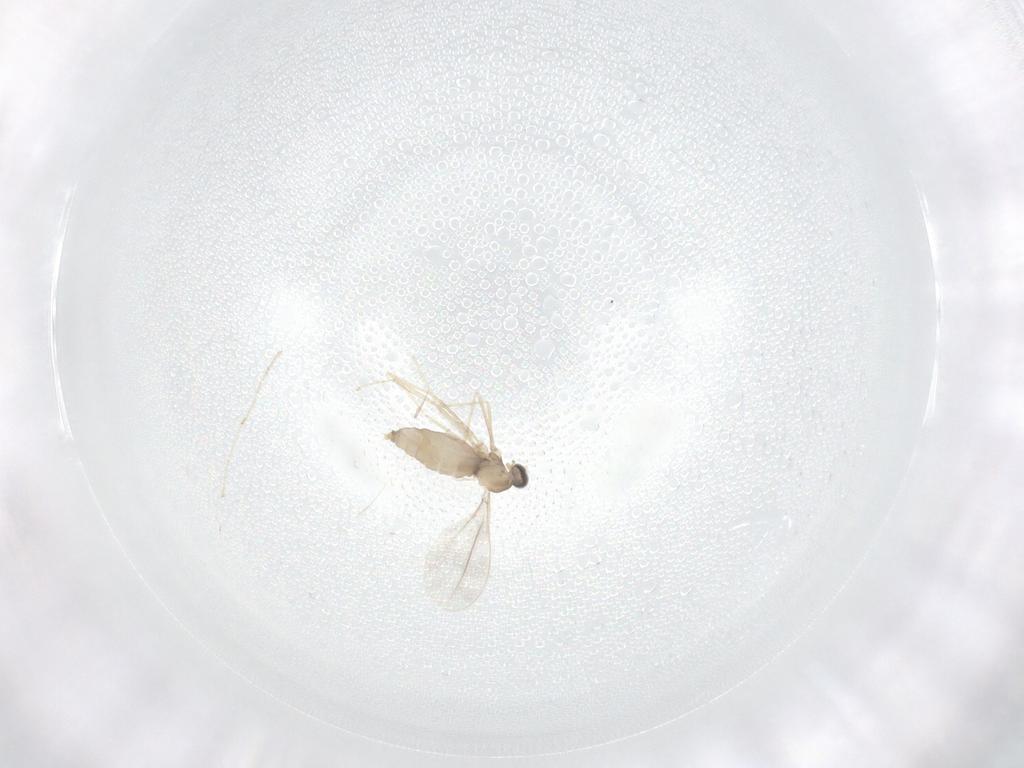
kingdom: Animalia
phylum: Arthropoda
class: Insecta
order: Diptera
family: Cecidomyiidae
